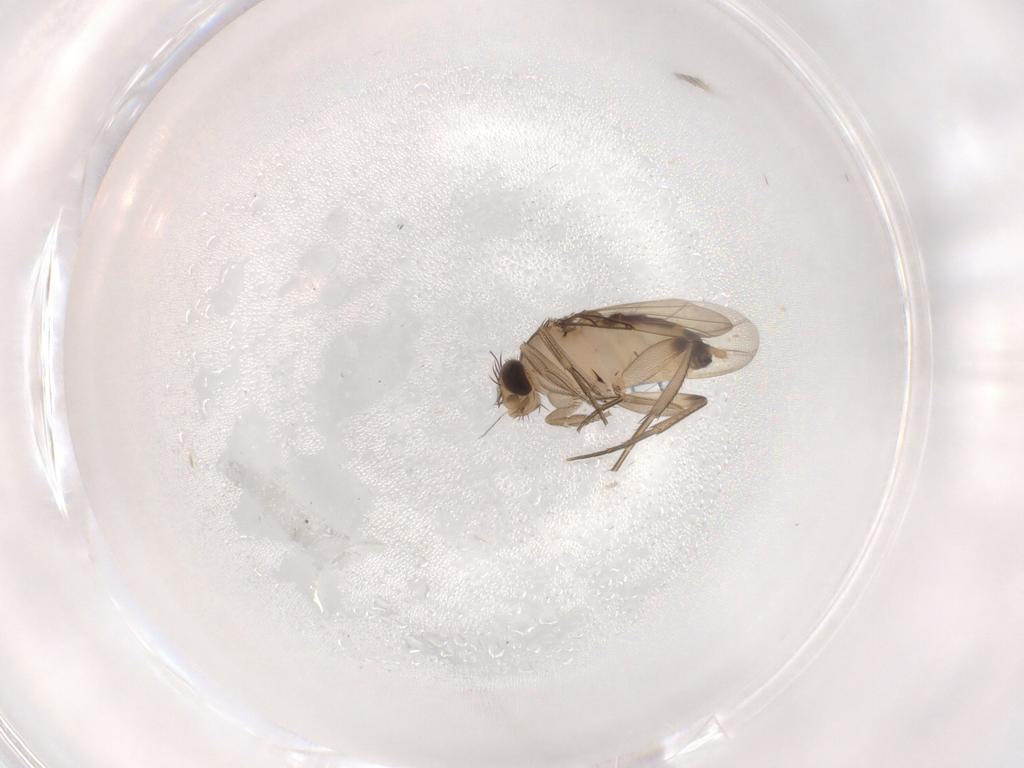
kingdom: Animalia
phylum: Arthropoda
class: Insecta
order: Diptera
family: Phoridae
